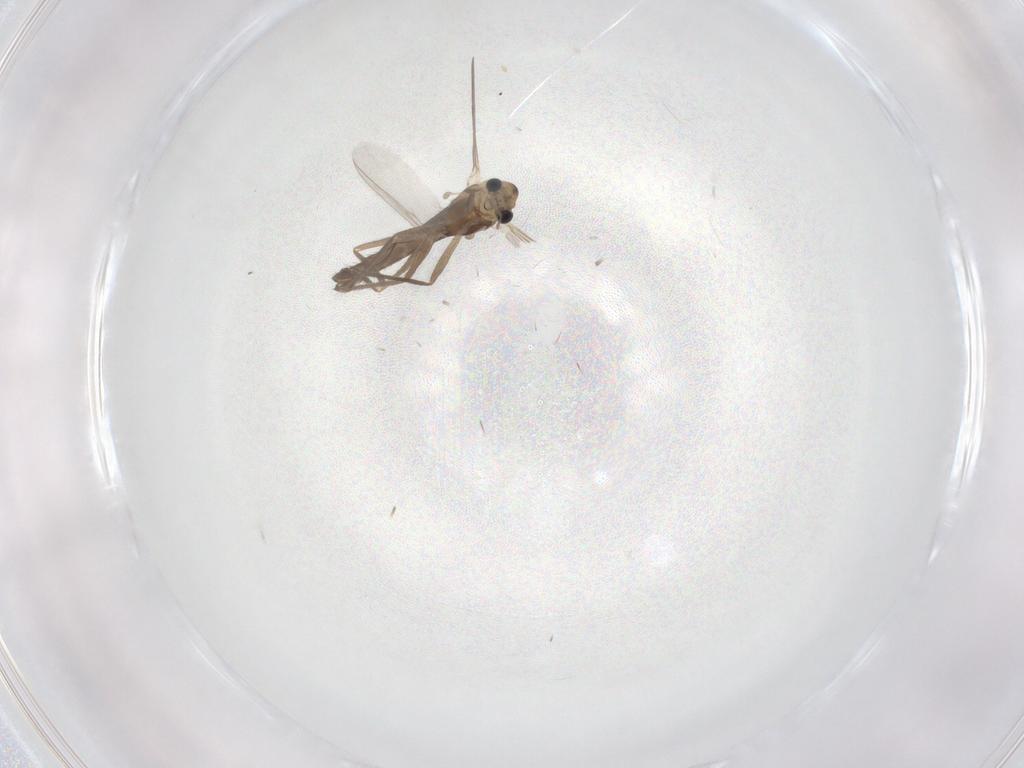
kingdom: Animalia
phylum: Arthropoda
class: Insecta
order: Diptera
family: Chironomidae
